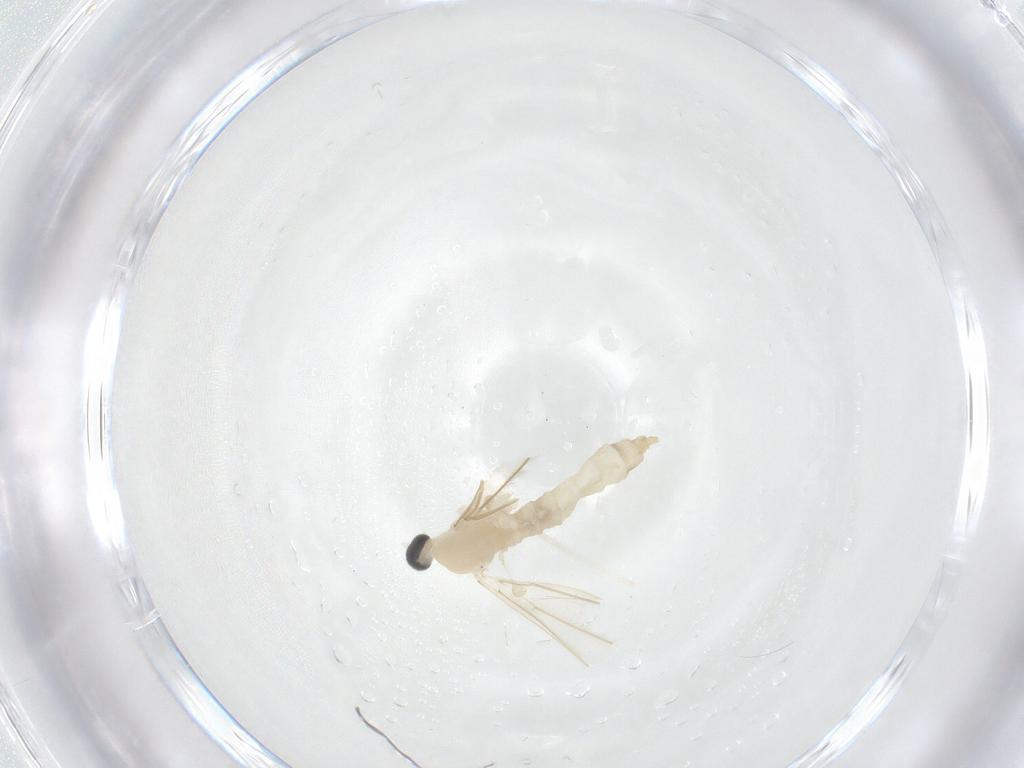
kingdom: Animalia
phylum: Arthropoda
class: Insecta
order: Diptera
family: Cecidomyiidae
